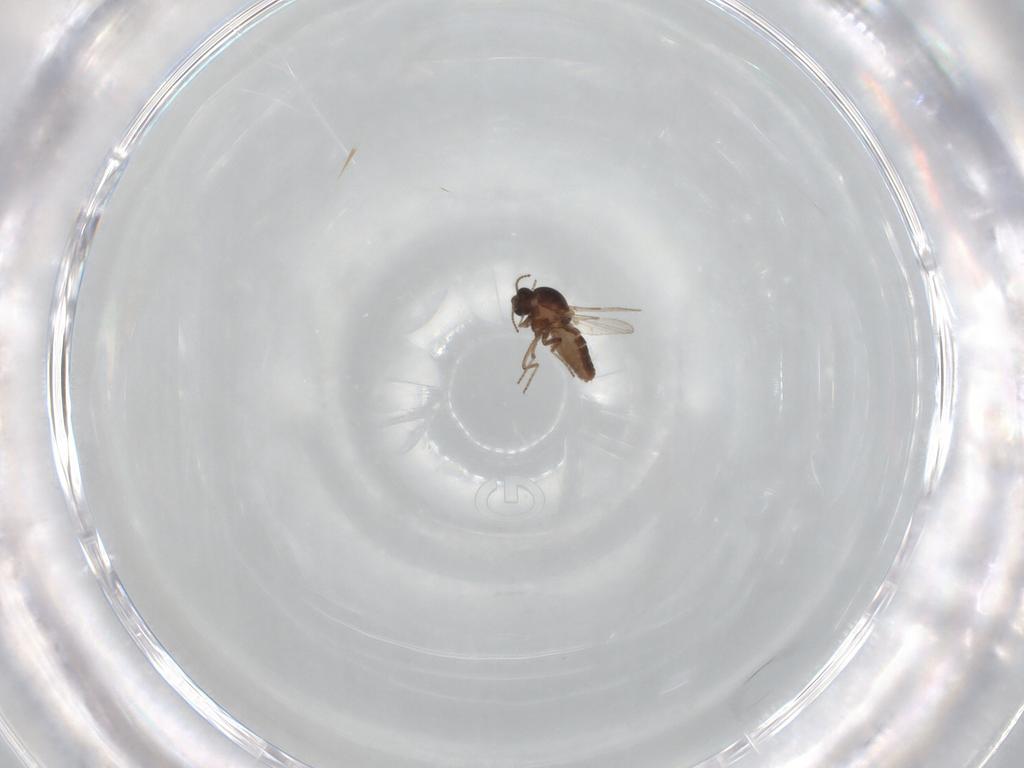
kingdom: Animalia
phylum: Arthropoda
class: Insecta
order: Diptera
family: Ceratopogonidae
